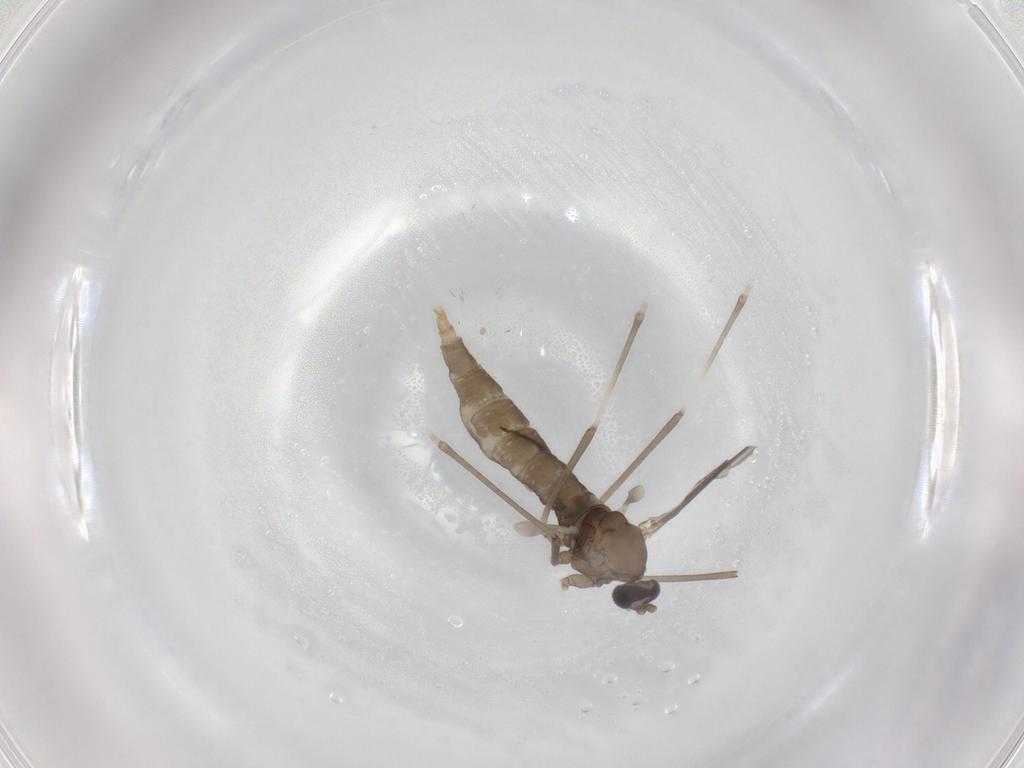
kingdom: Animalia
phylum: Arthropoda
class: Insecta
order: Diptera
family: Cecidomyiidae
